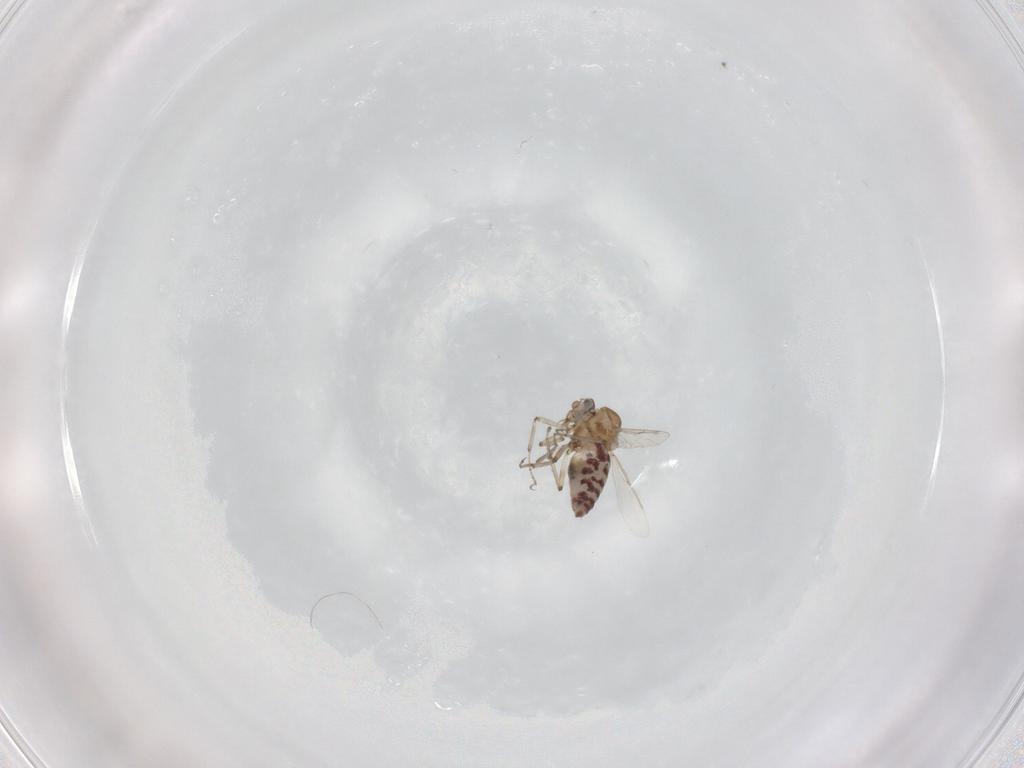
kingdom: Animalia
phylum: Arthropoda
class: Insecta
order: Diptera
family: Ceratopogonidae
